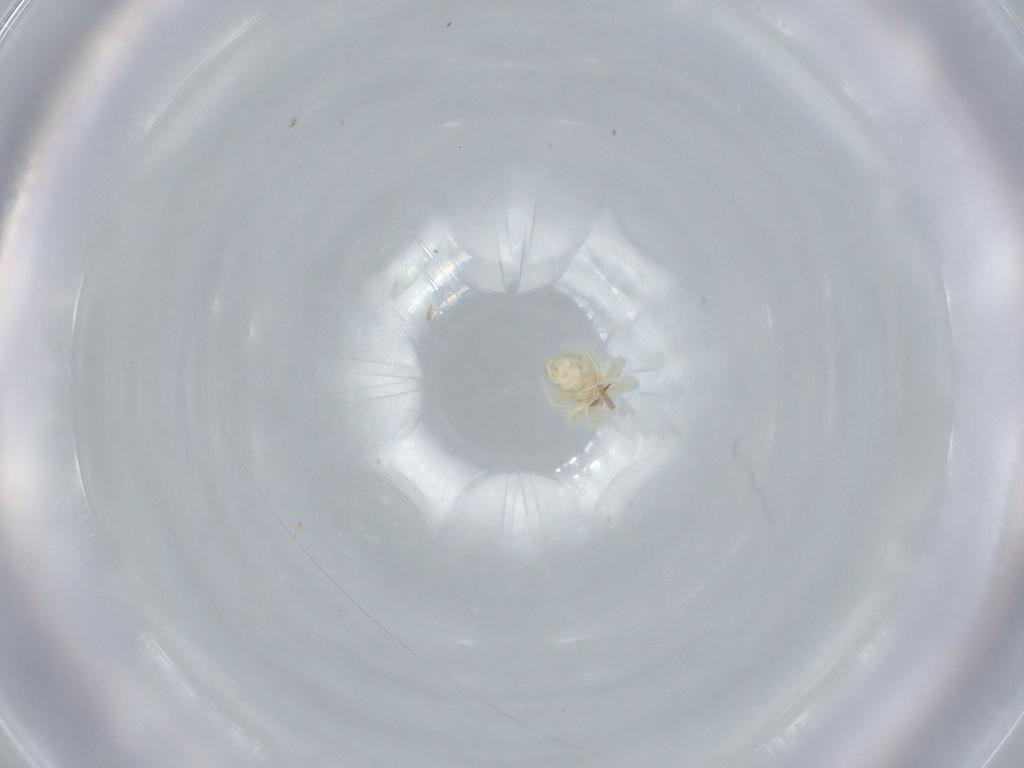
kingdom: Animalia
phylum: Arthropoda
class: Arachnida
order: Trombidiformes
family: Anystidae
